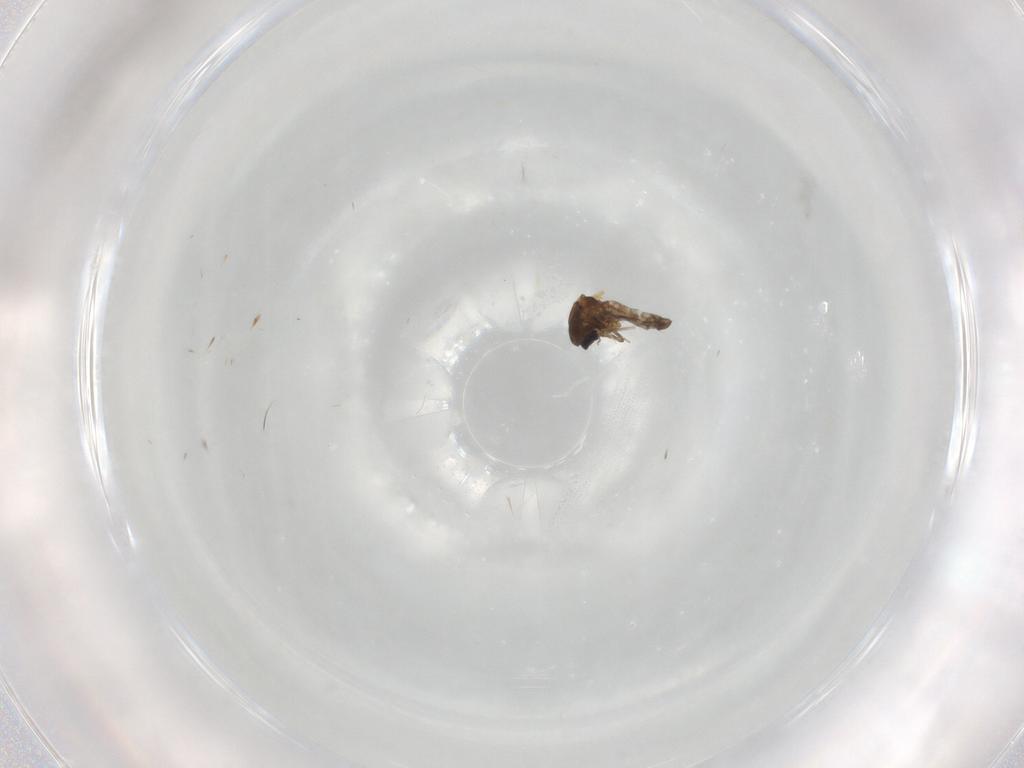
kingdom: Animalia
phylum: Arthropoda
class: Insecta
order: Diptera
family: Ceratopogonidae
